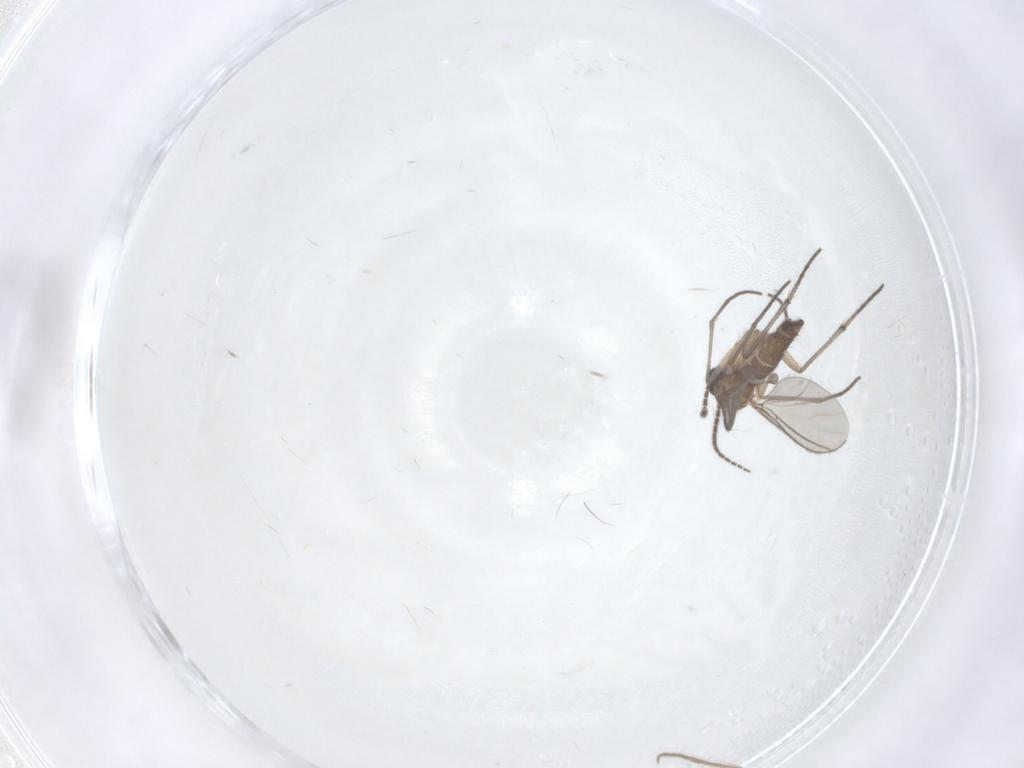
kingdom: Animalia
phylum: Arthropoda
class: Insecta
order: Diptera
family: Sciaridae
